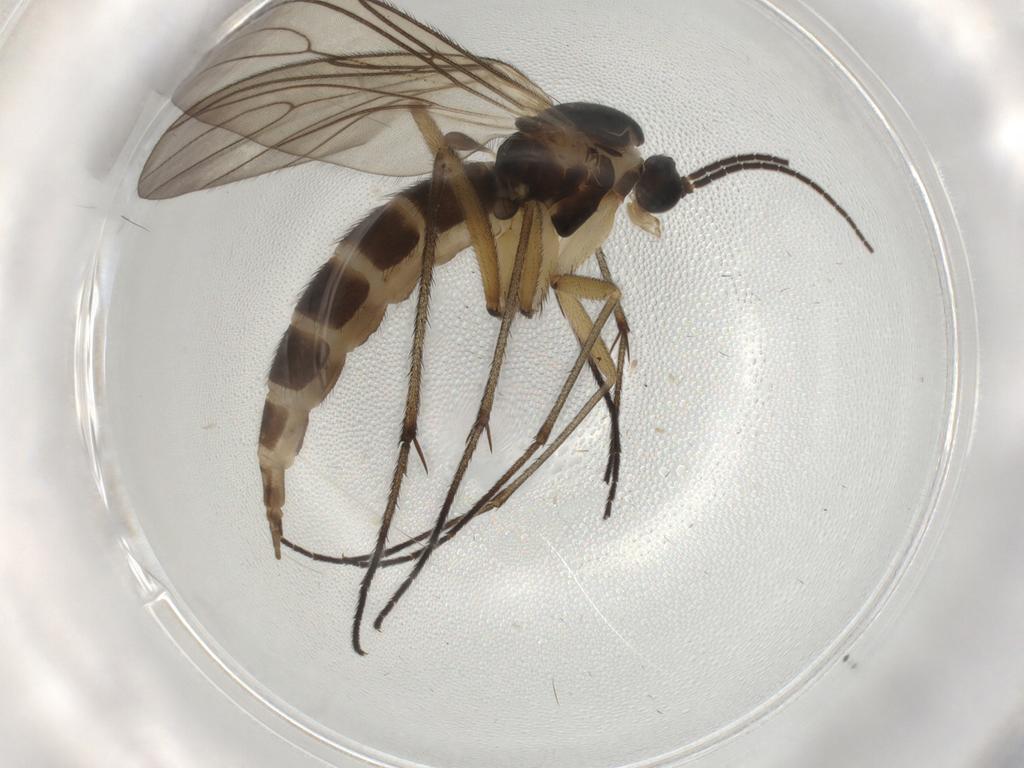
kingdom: Animalia
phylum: Arthropoda
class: Insecta
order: Diptera
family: Sciaridae
